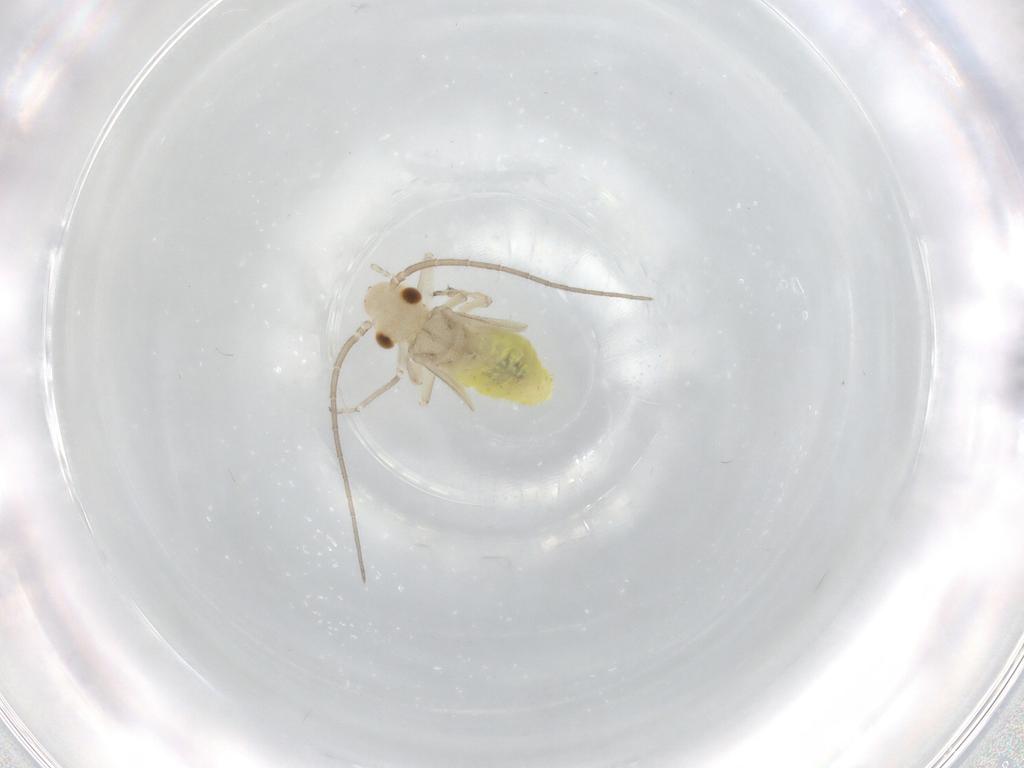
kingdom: Animalia
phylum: Arthropoda
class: Insecta
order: Psocodea
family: Caeciliusidae
